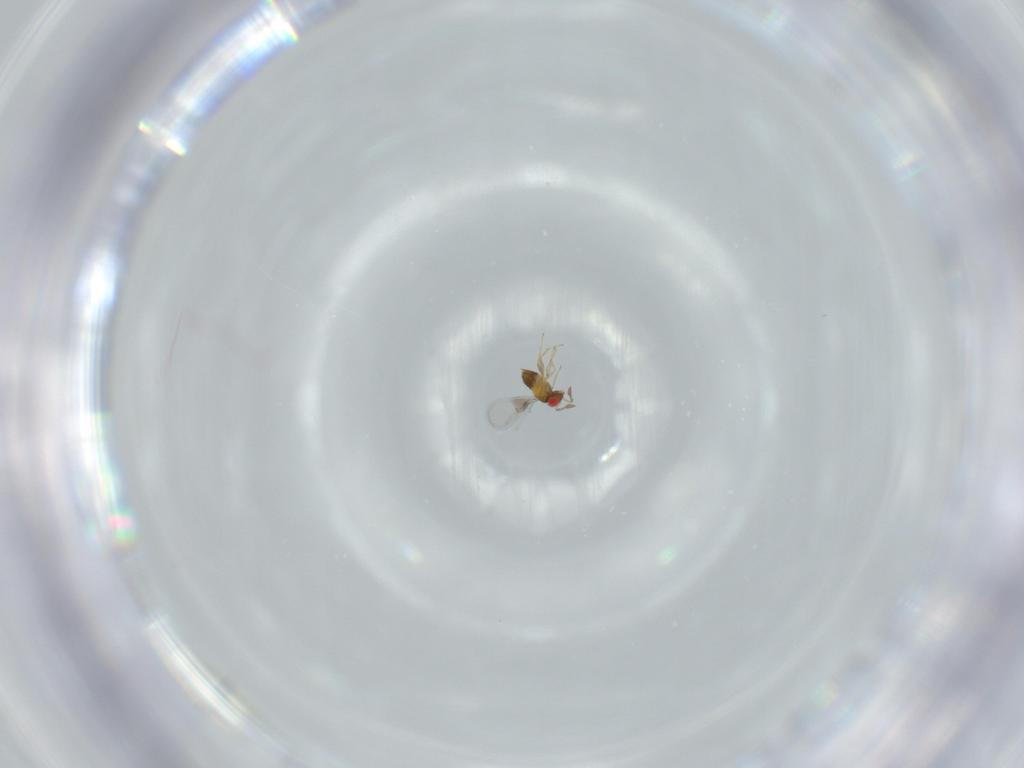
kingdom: Animalia
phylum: Arthropoda
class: Insecta
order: Hymenoptera
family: Trichogrammatidae
